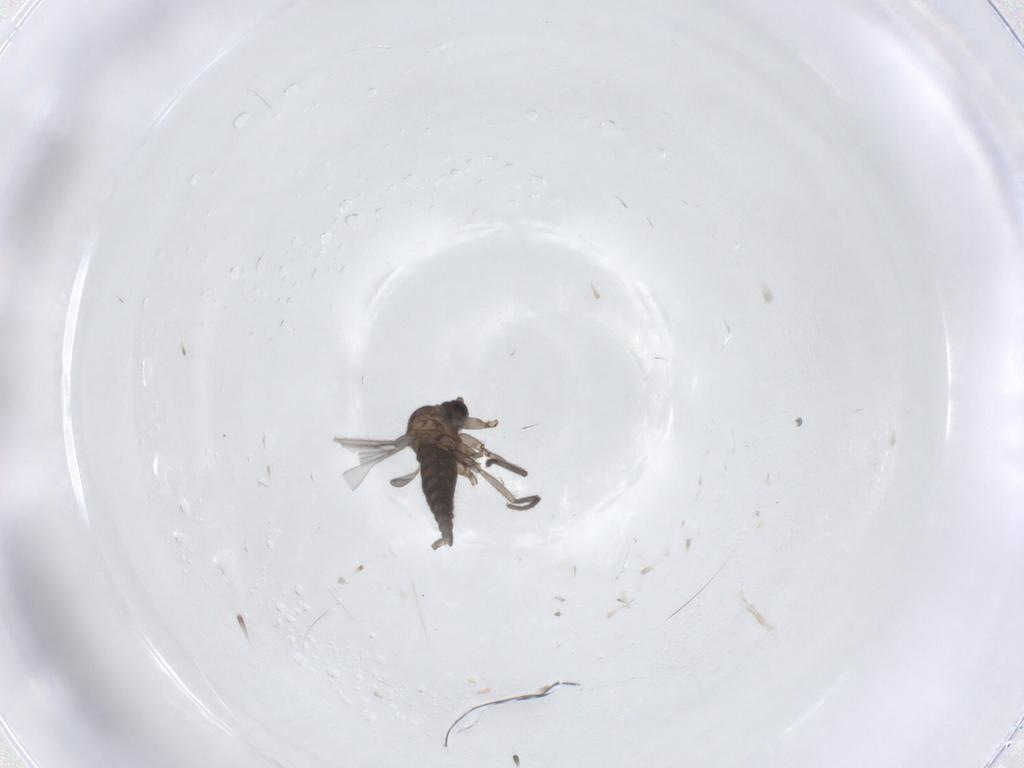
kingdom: Animalia
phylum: Arthropoda
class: Insecta
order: Diptera
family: Sciaridae
